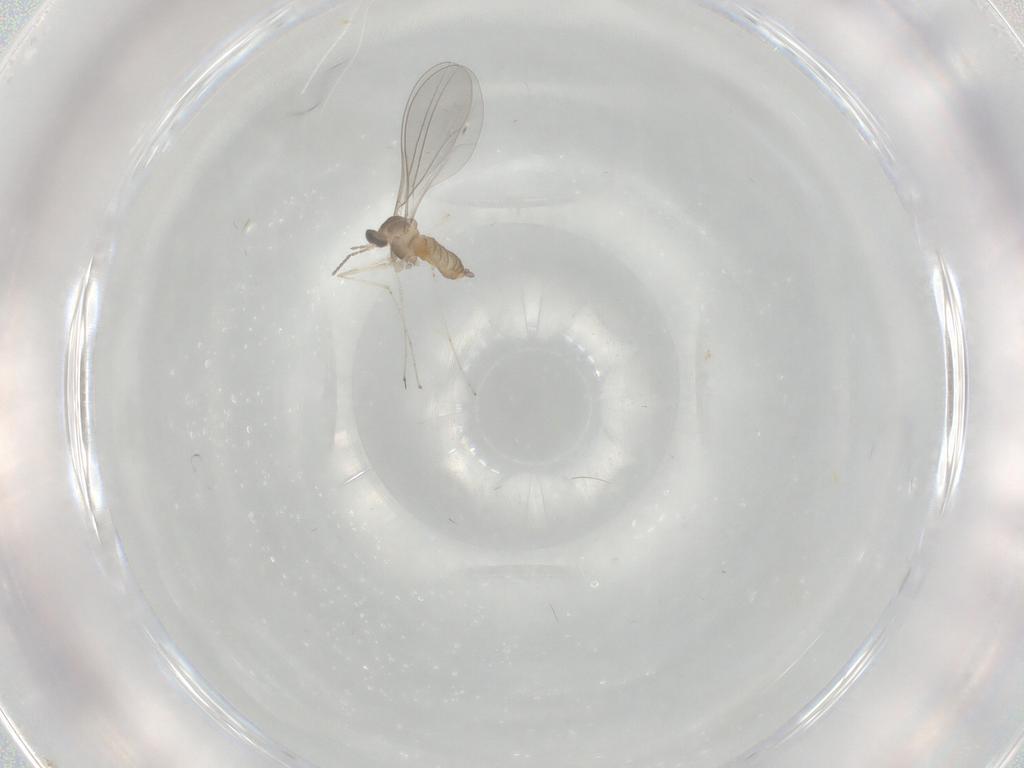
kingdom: Animalia
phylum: Arthropoda
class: Insecta
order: Diptera
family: Cecidomyiidae
